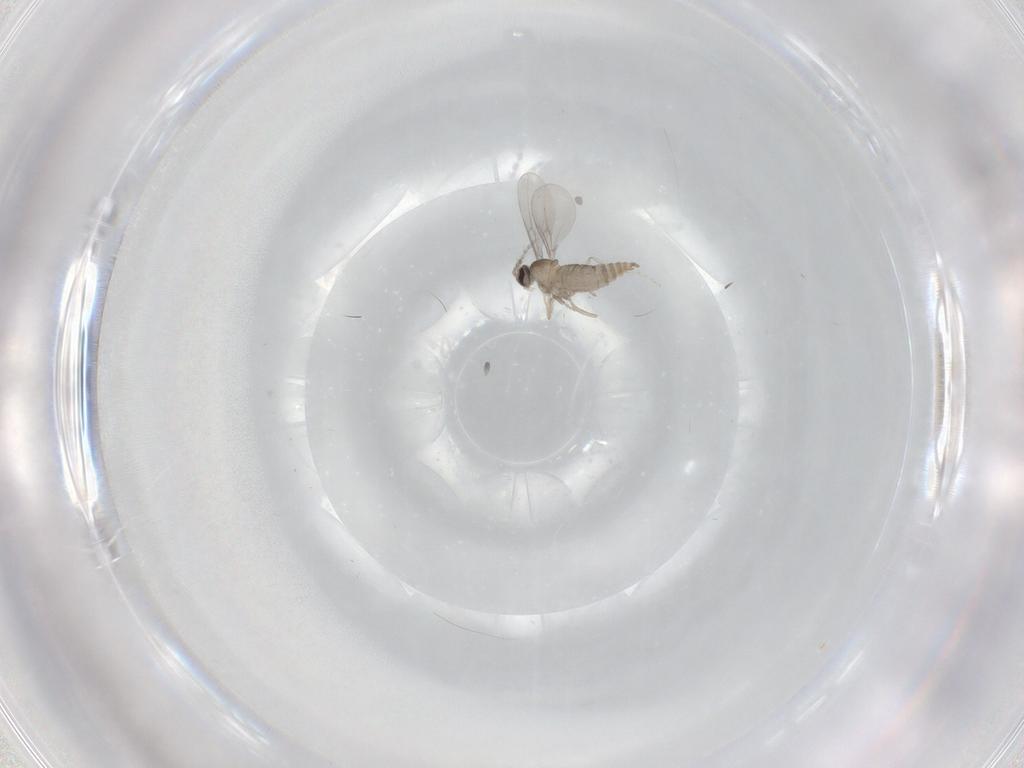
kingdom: Animalia
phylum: Arthropoda
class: Insecta
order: Diptera
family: Cecidomyiidae
